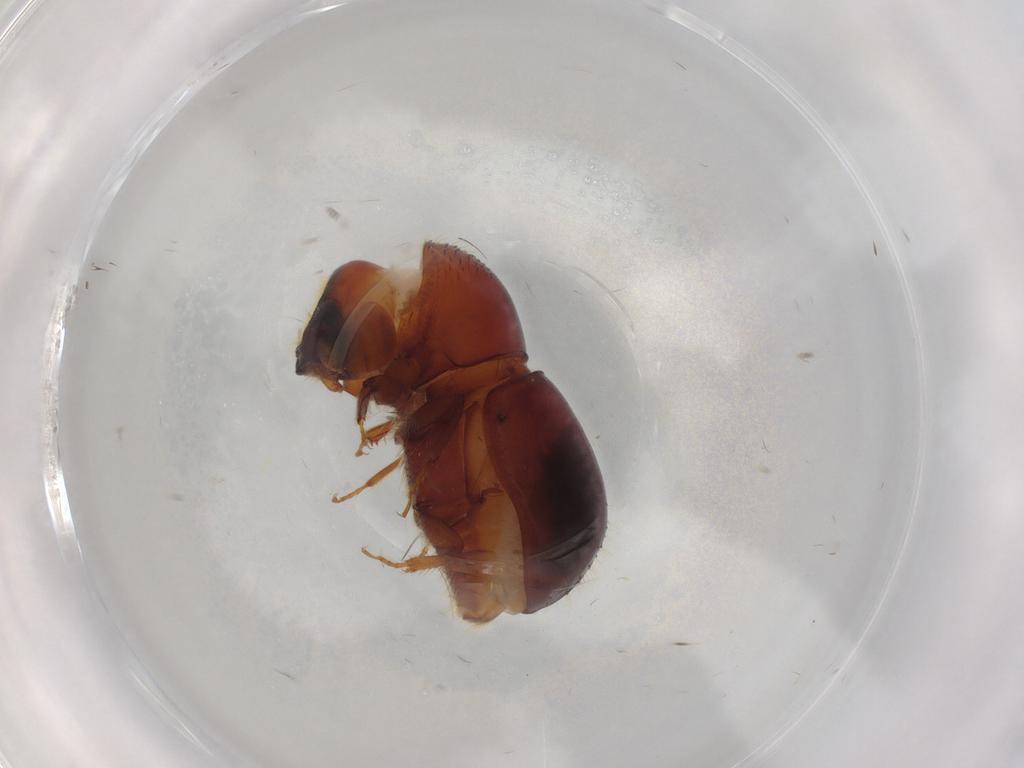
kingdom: Animalia
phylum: Arthropoda
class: Insecta
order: Coleoptera
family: Curculionidae
